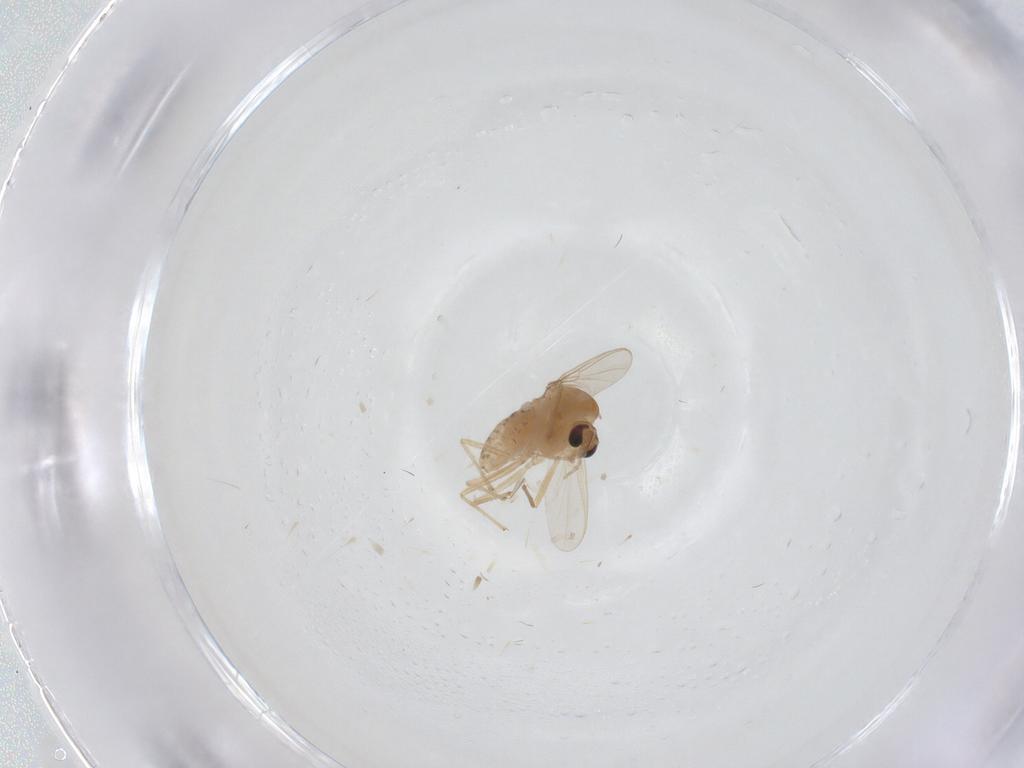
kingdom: Animalia
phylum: Arthropoda
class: Insecta
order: Diptera
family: Chironomidae
